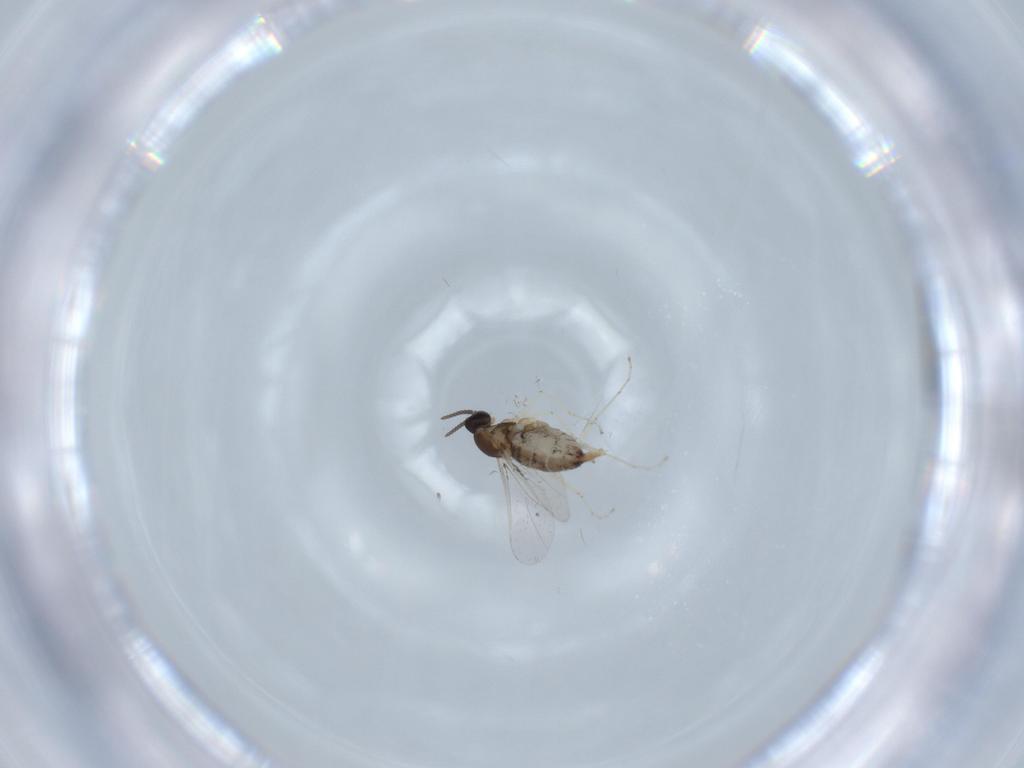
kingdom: Animalia
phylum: Arthropoda
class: Insecta
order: Diptera
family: Cecidomyiidae
